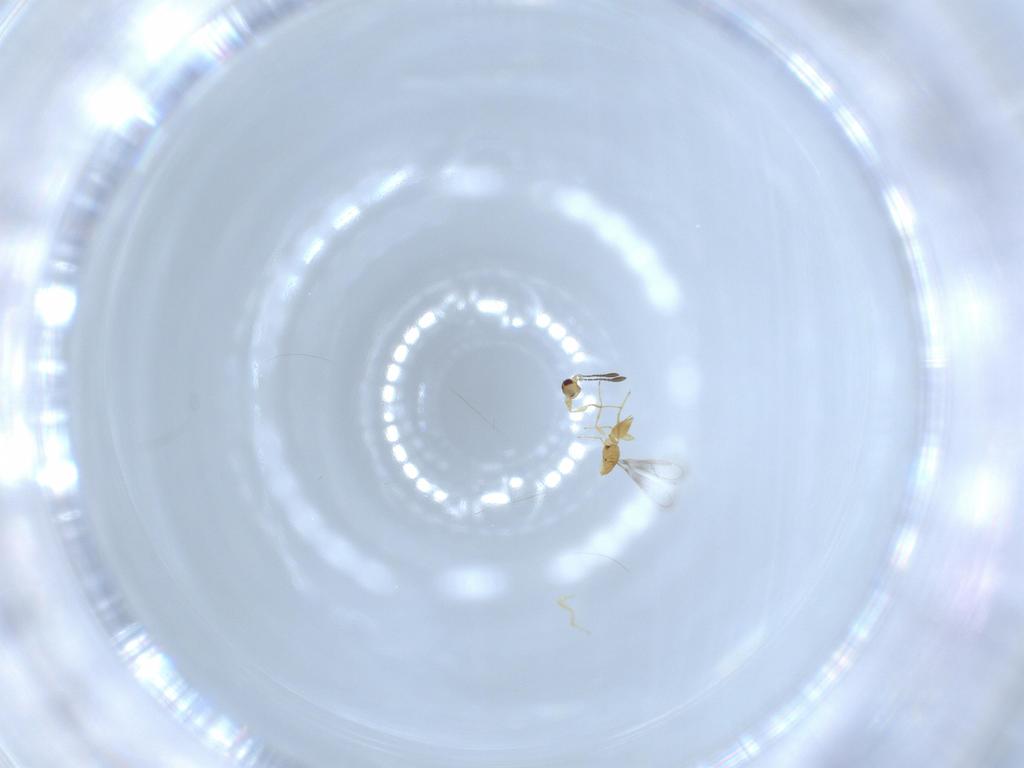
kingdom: Animalia
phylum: Arthropoda
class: Insecta
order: Hymenoptera
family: Mymaridae
